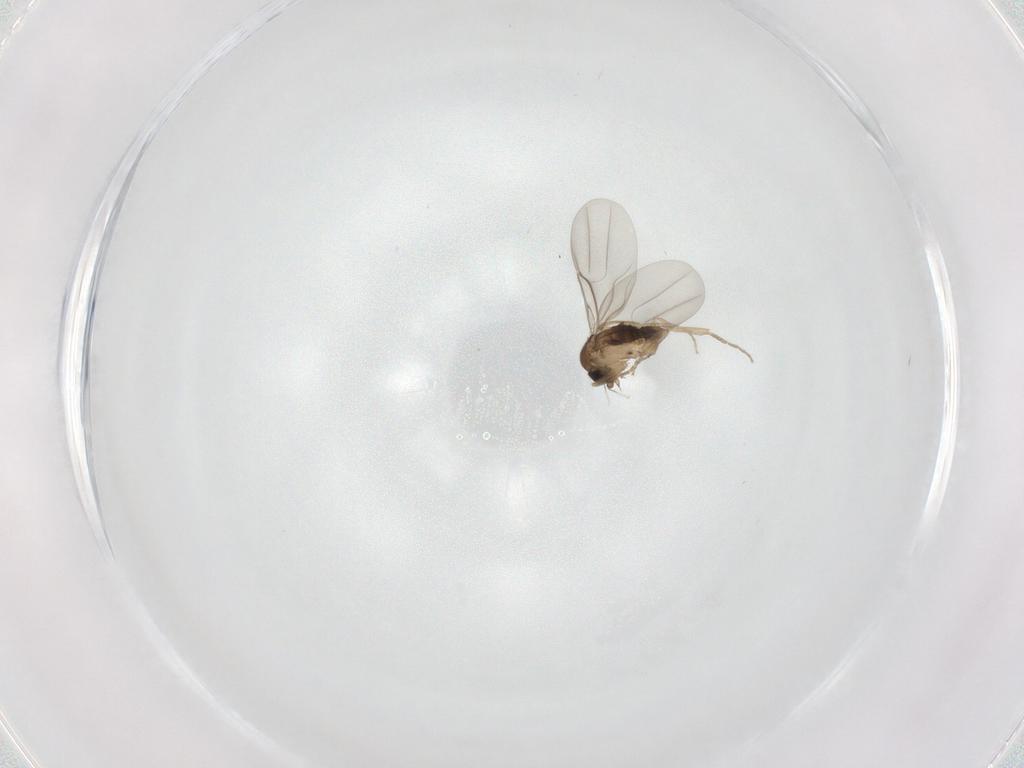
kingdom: Animalia
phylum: Arthropoda
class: Insecta
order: Diptera
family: Phoridae
